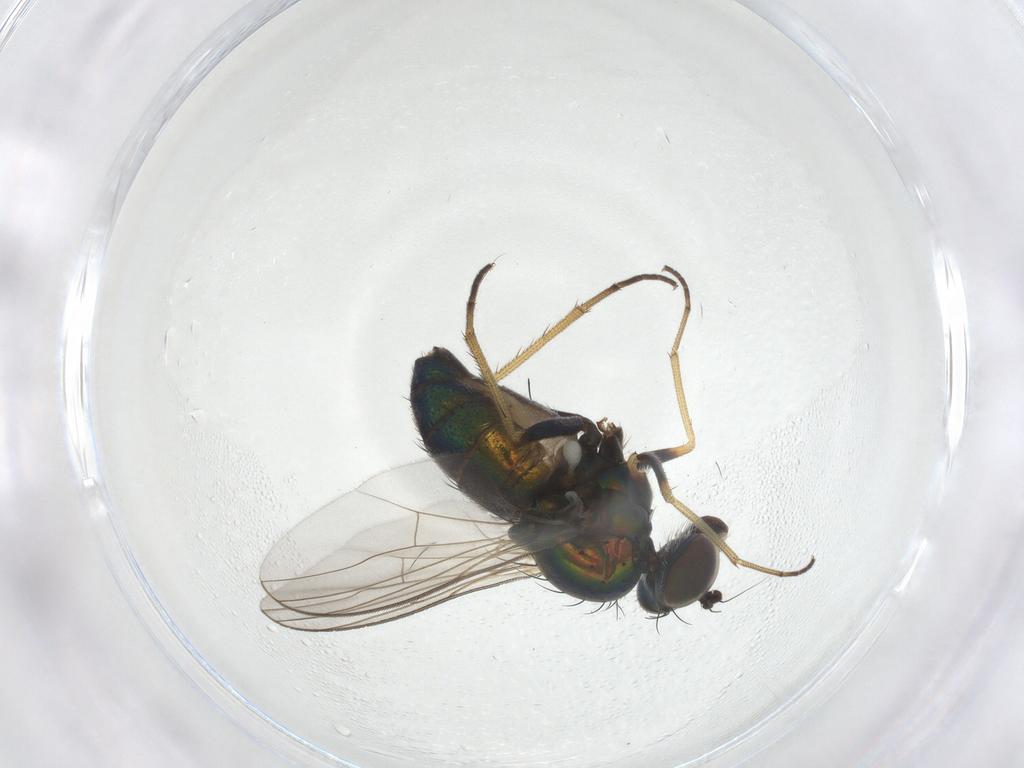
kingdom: Animalia
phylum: Arthropoda
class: Insecta
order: Diptera
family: Dolichopodidae
